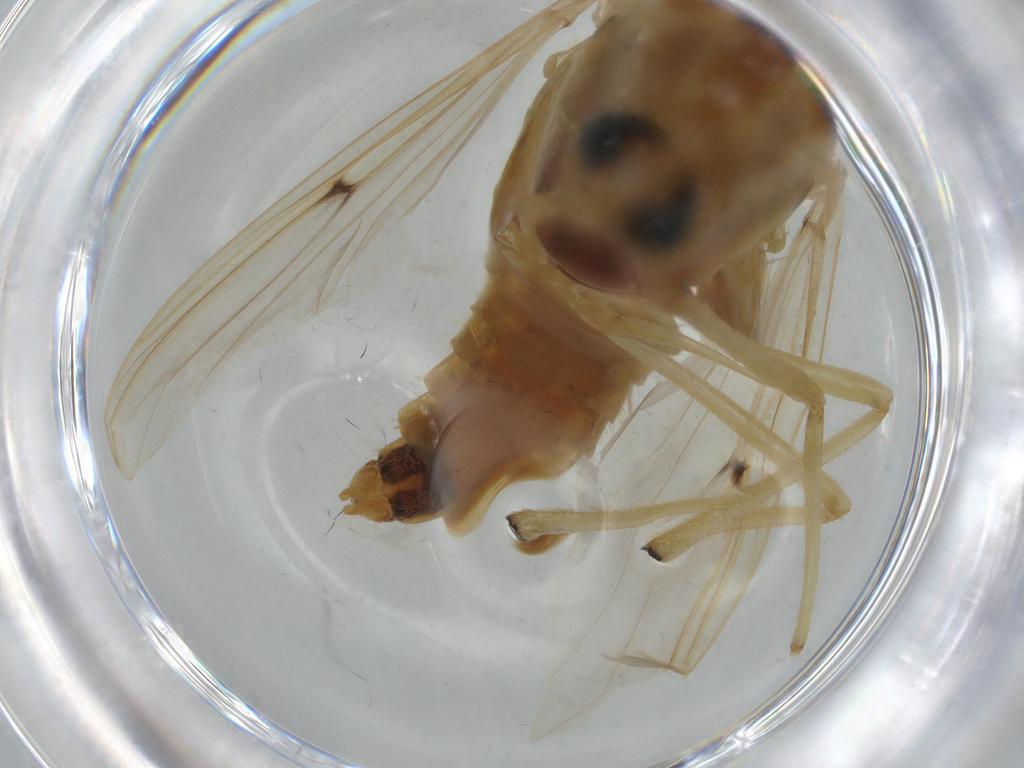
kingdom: Animalia
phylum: Arthropoda
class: Insecta
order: Diptera
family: Chironomidae
